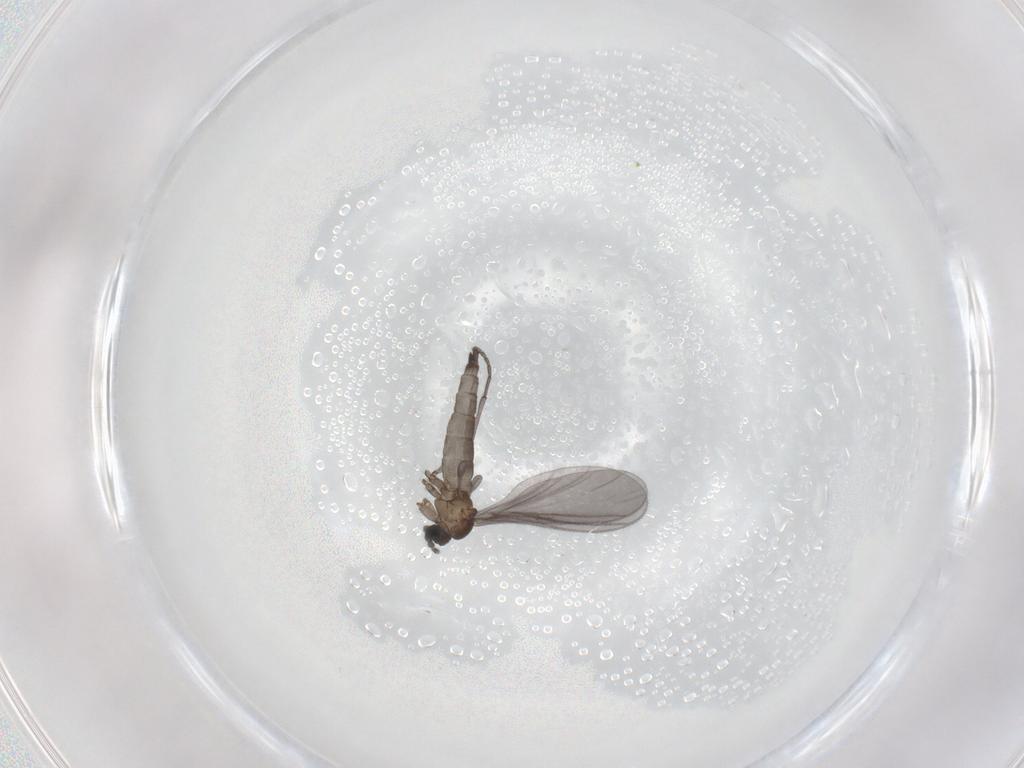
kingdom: Animalia
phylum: Arthropoda
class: Insecta
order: Diptera
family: Sciaridae
